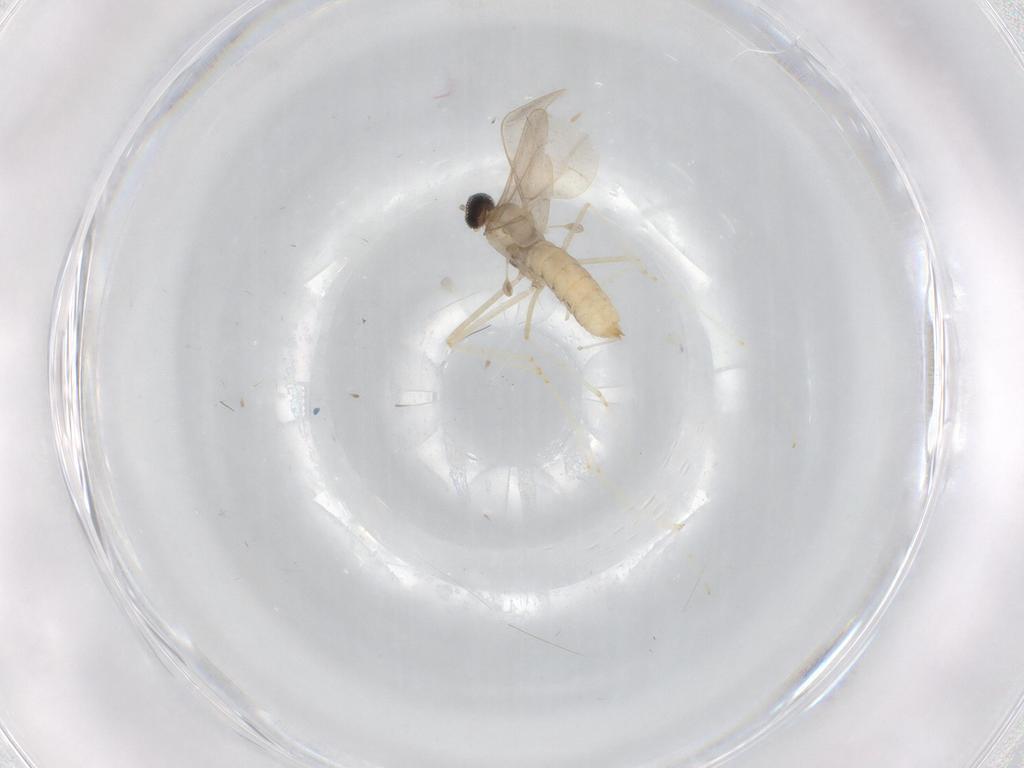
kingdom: Animalia
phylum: Arthropoda
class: Insecta
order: Diptera
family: Cecidomyiidae
